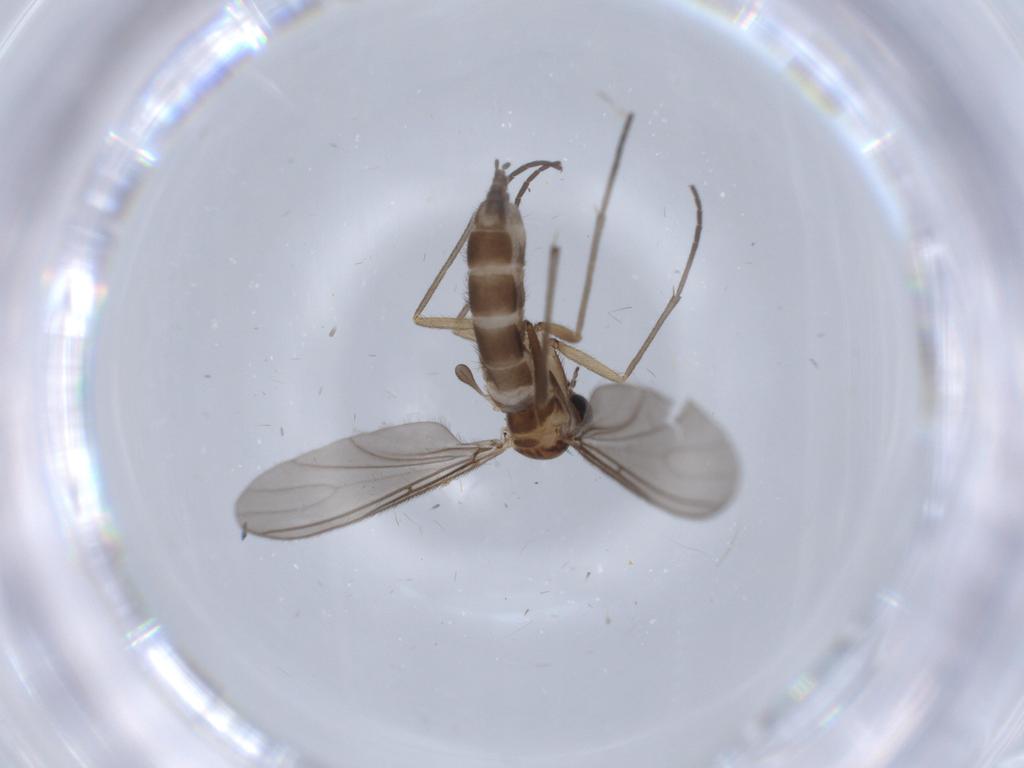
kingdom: Animalia
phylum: Arthropoda
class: Insecta
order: Diptera
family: Sciaridae
